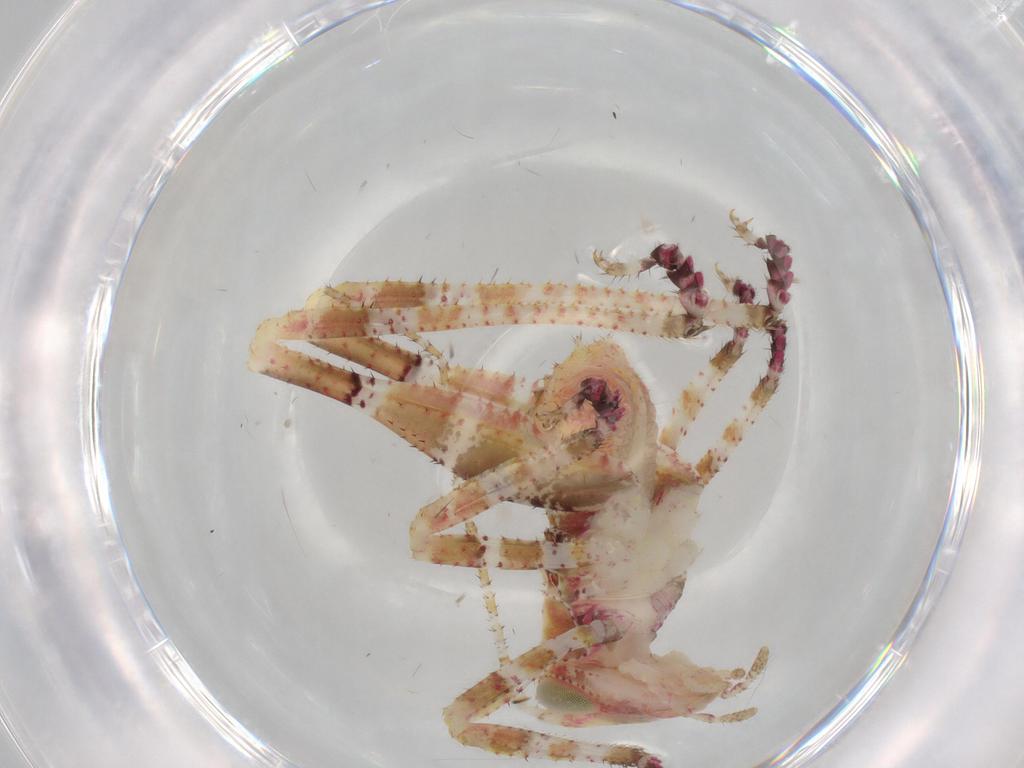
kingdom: Animalia
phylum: Arthropoda
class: Insecta
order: Orthoptera
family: Tettigoniidae
